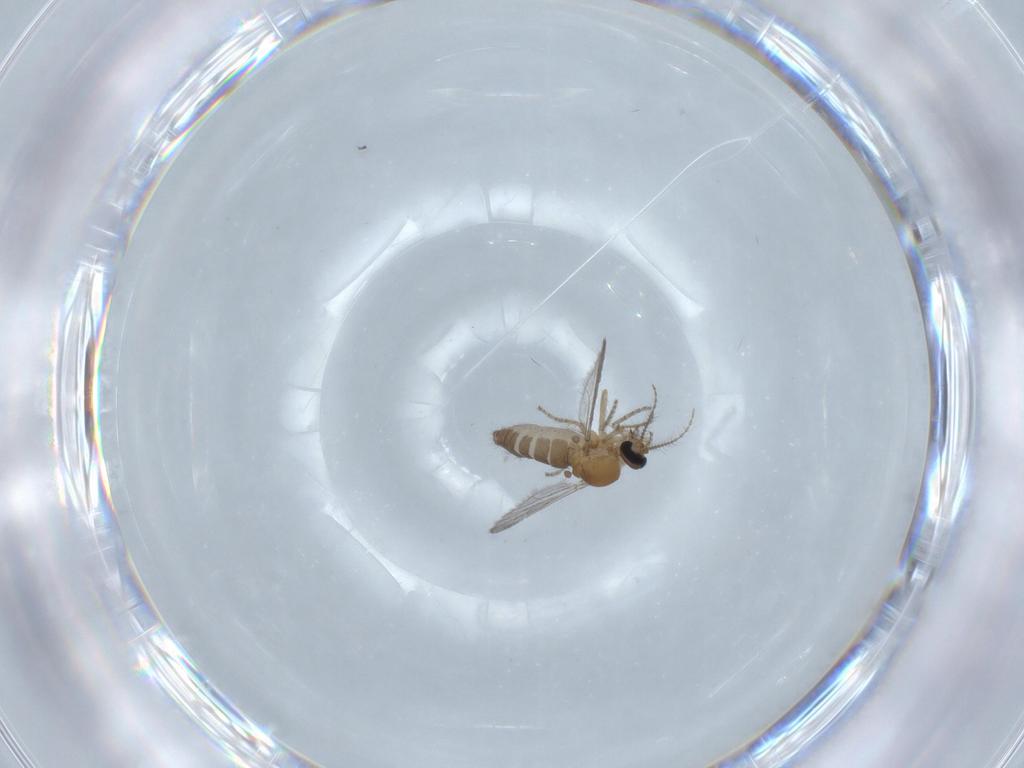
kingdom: Animalia
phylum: Arthropoda
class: Insecta
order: Diptera
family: Ceratopogonidae
